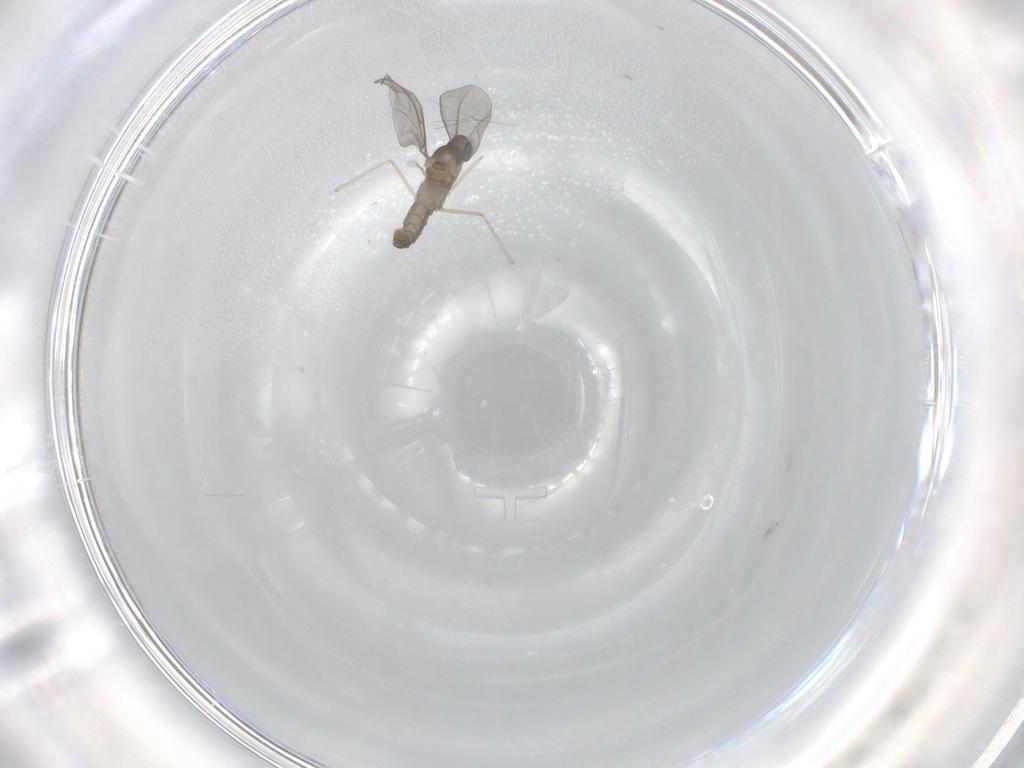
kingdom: Animalia
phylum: Arthropoda
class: Insecta
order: Diptera
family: Cecidomyiidae
